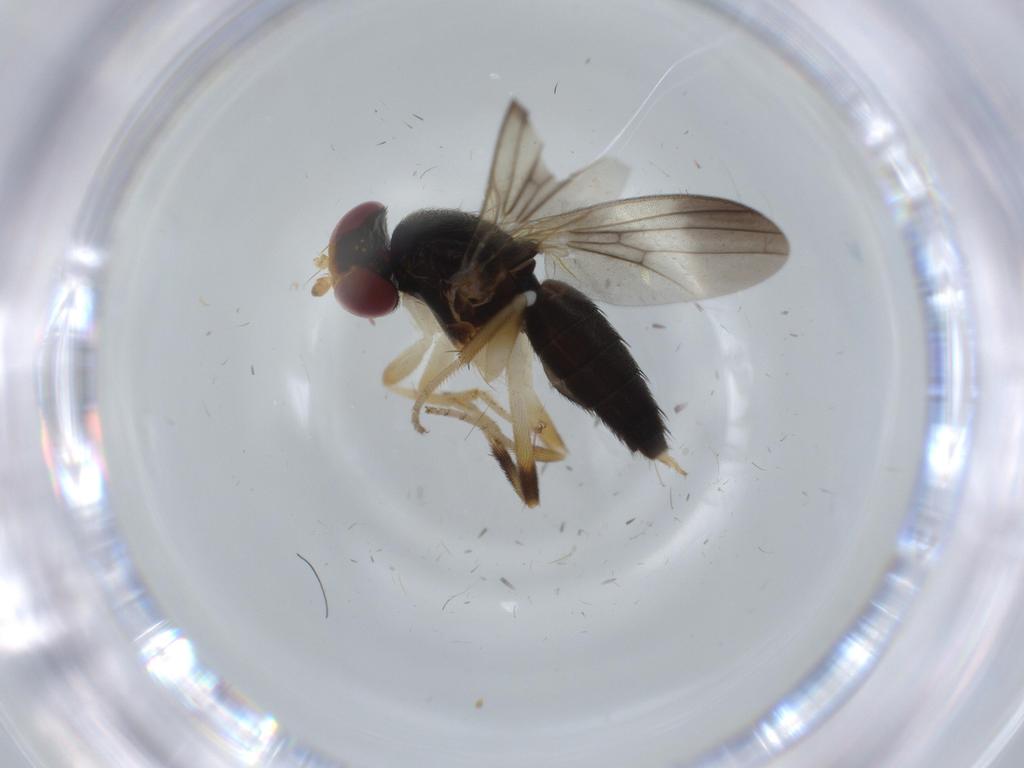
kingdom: Animalia
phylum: Arthropoda
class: Insecta
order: Diptera
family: Clusiidae
